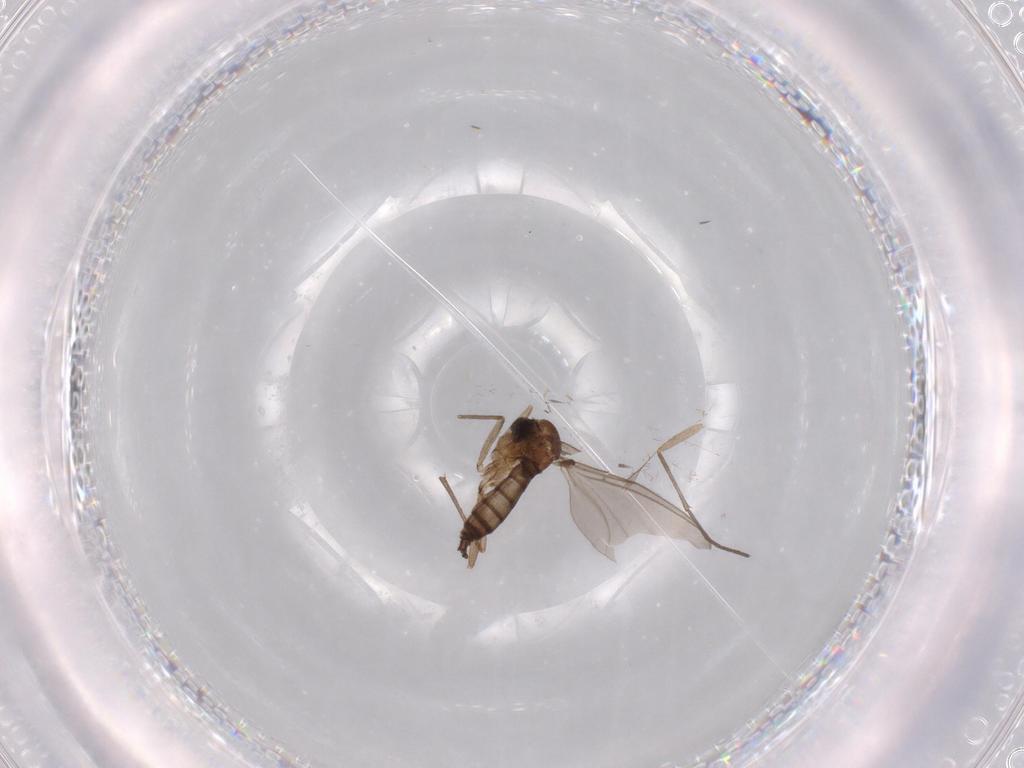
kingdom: Animalia
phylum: Arthropoda
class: Insecta
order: Diptera
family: Sciaridae
